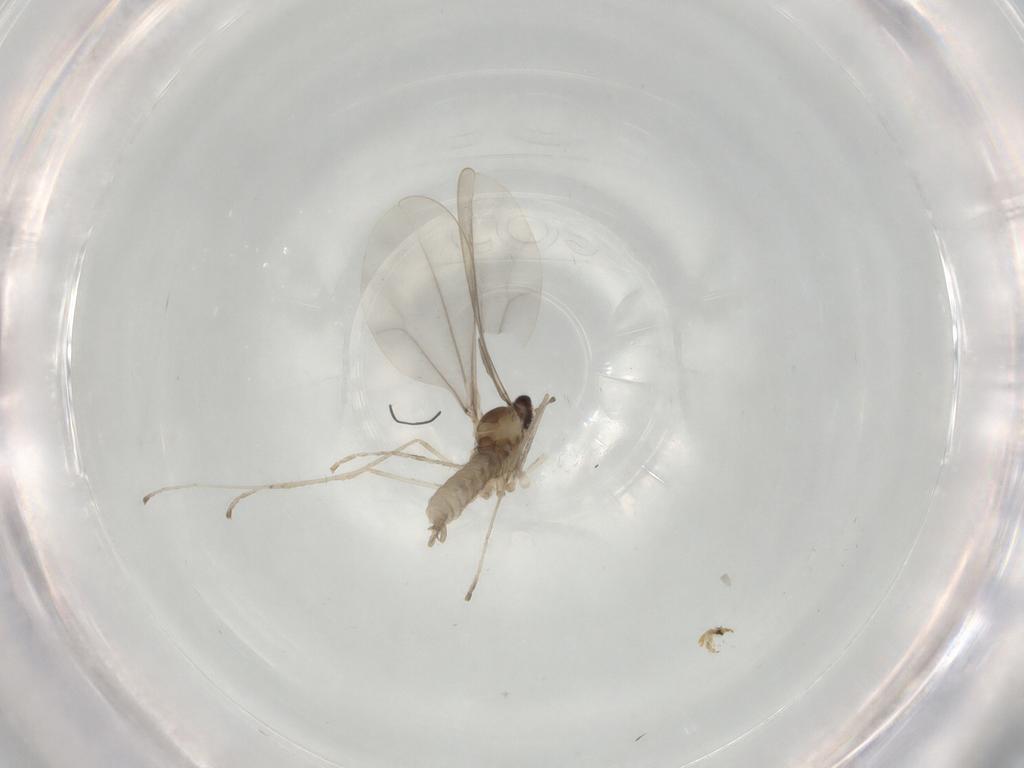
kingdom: Animalia
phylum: Arthropoda
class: Insecta
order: Diptera
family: Cecidomyiidae
